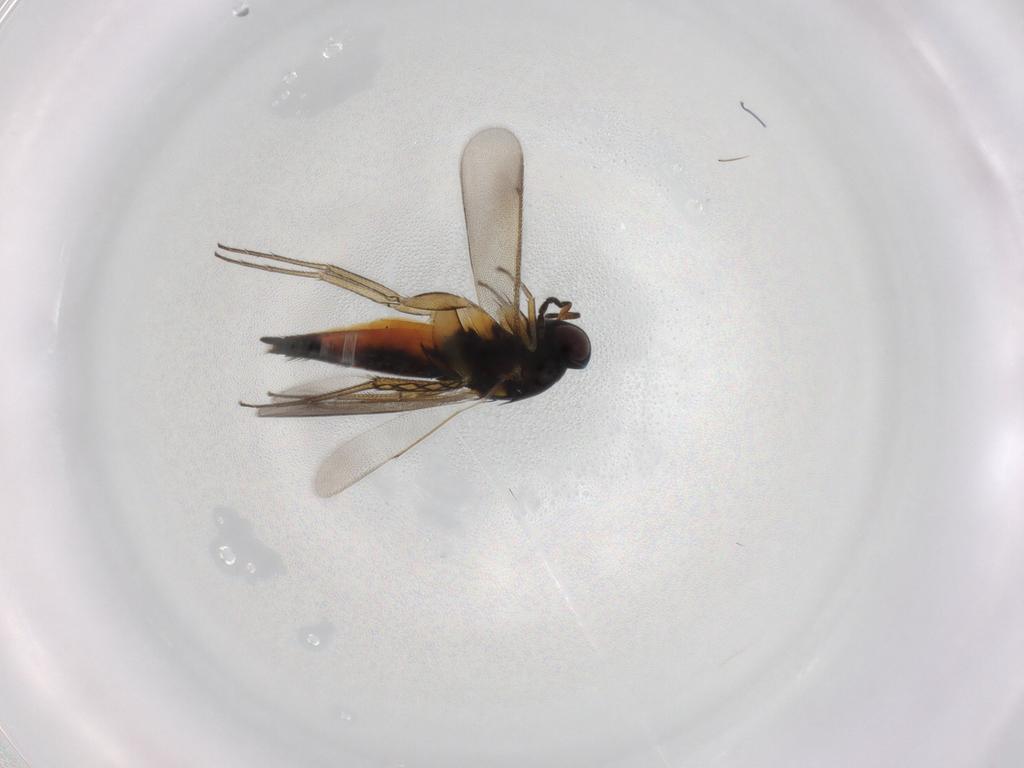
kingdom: Animalia
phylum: Arthropoda
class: Insecta
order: Hymenoptera
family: Eulophidae
